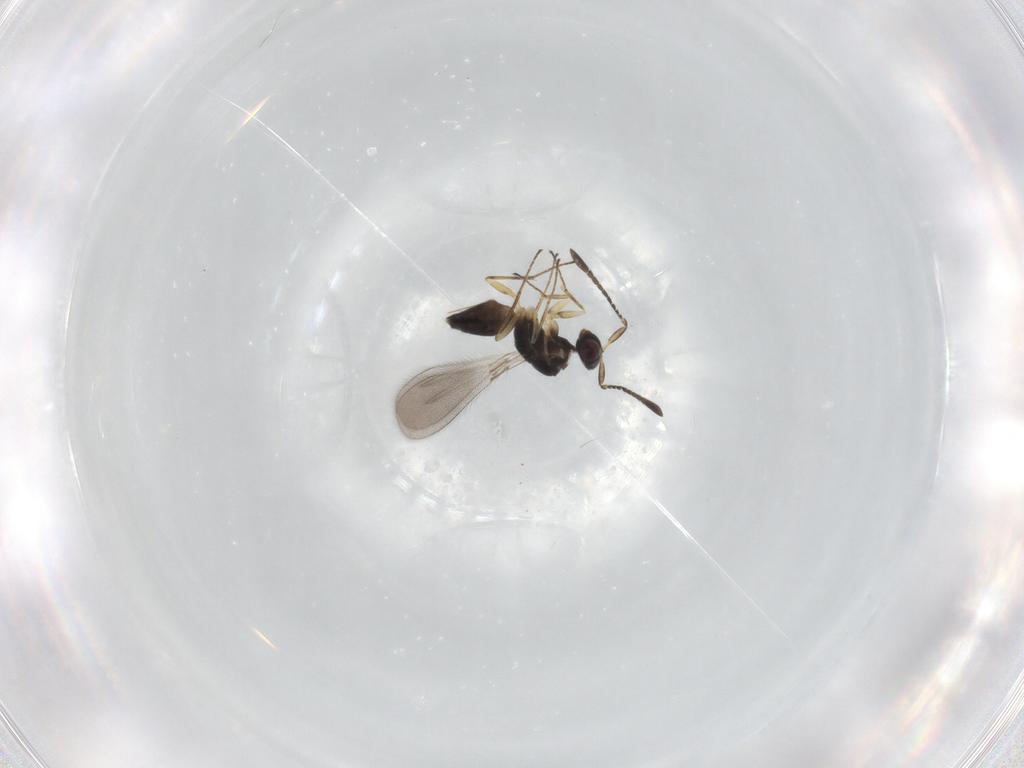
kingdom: Animalia
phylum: Arthropoda
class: Insecta
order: Hymenoptera
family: Mymaridae
